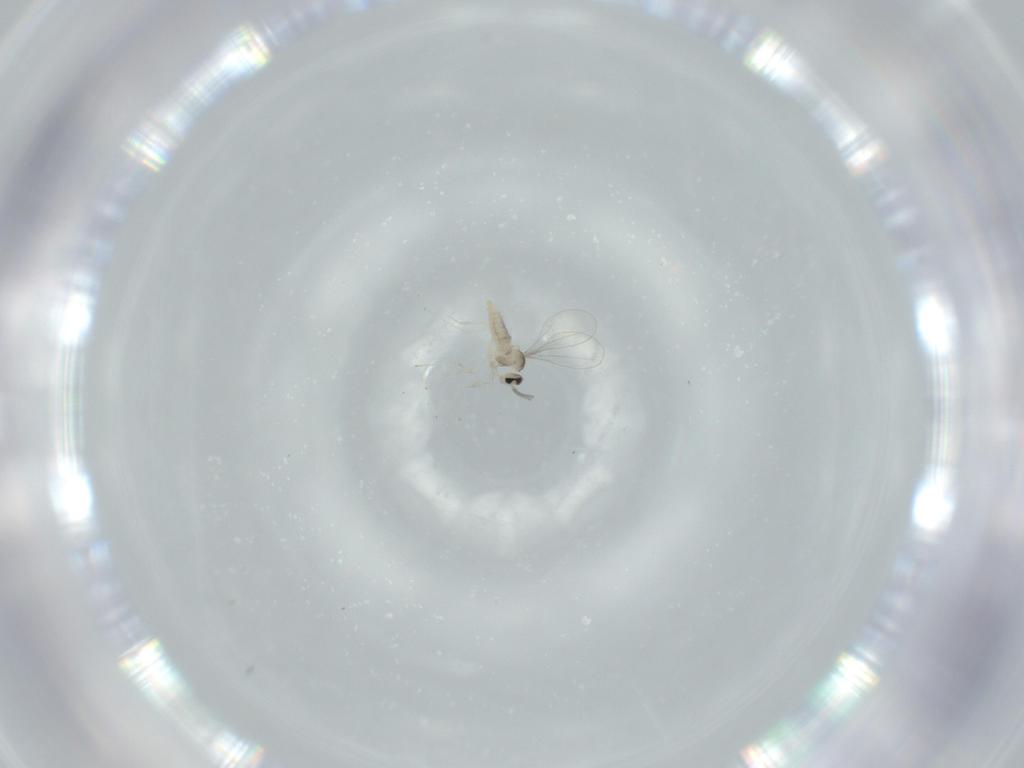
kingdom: Animalia
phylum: Arthropoda
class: Insecta
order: Diptera
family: Cecidomyiidae
